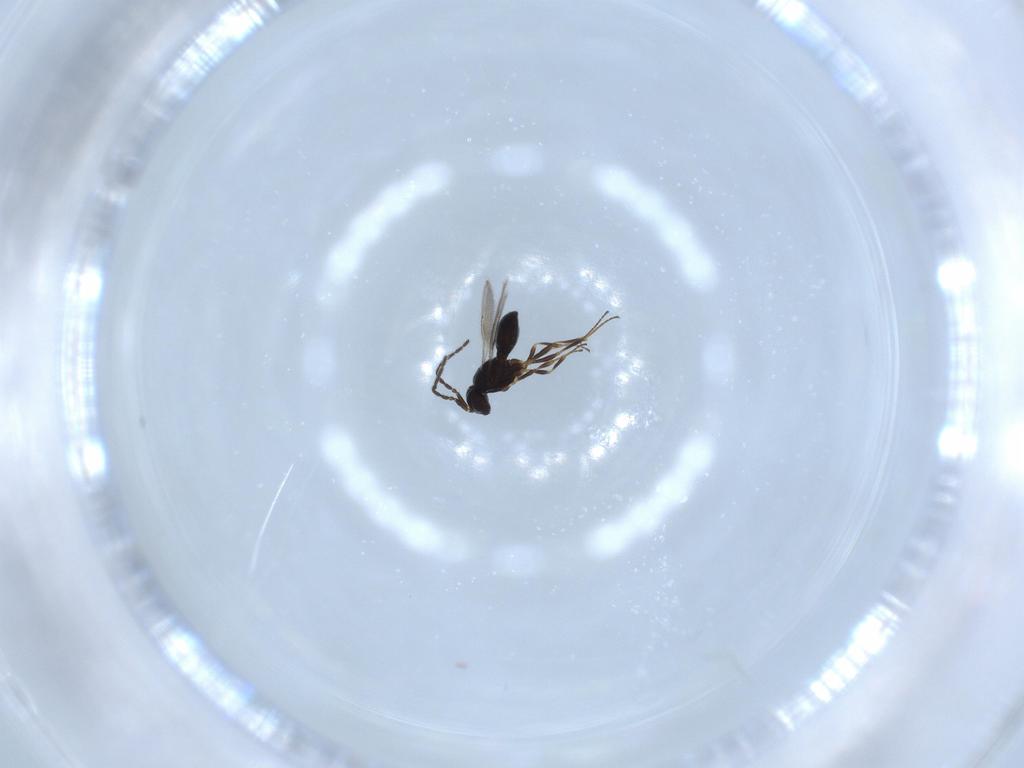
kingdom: Animalia
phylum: Arthropoda
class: Insecta
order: Hymenoptera
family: Scelionidae
